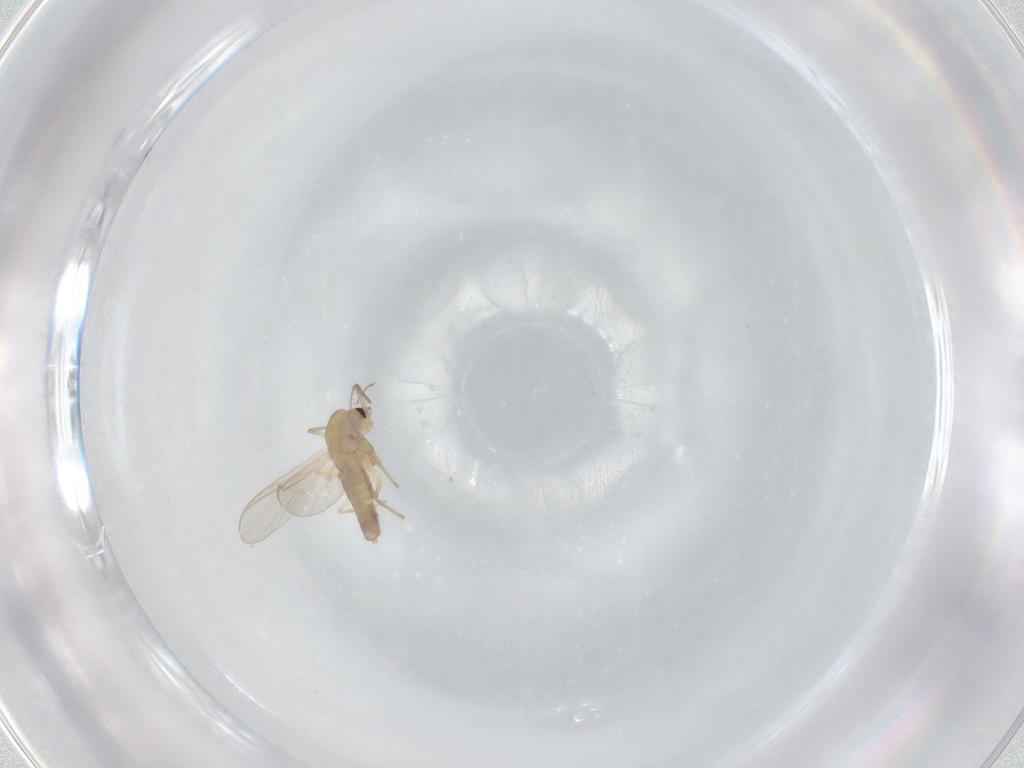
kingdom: Animalia
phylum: Arthropoda
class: Insecta
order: Diptera
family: Chironomidae
